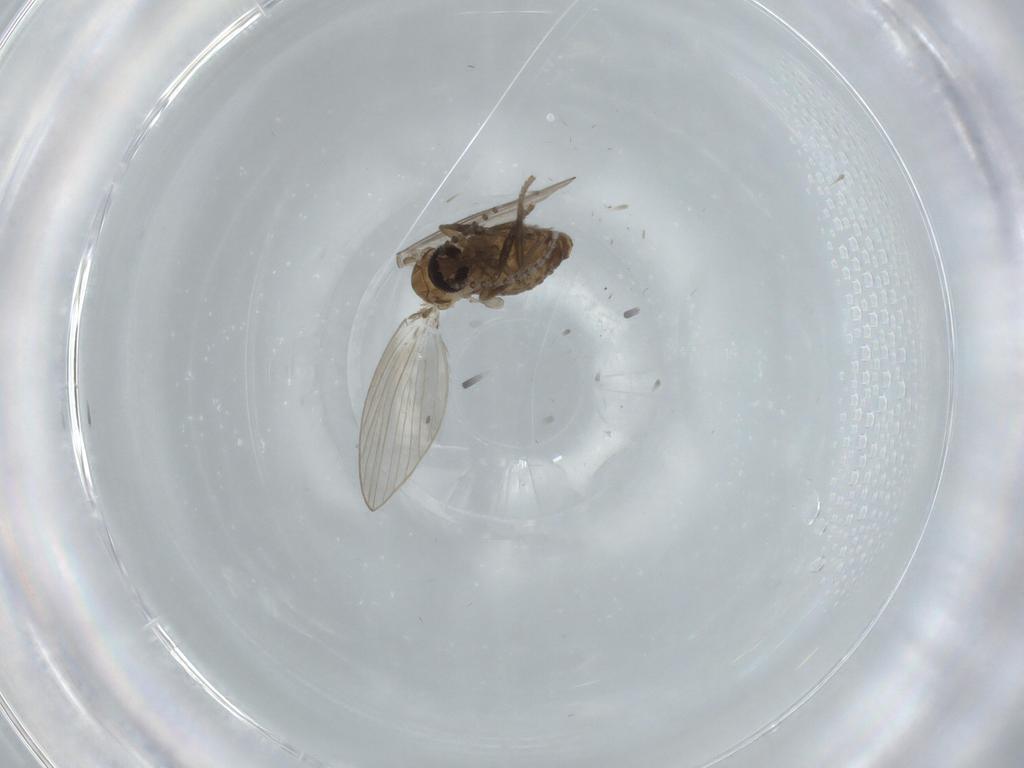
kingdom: Animalia
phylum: Arthropoda
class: Insecta
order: Diptera
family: Psychodidae
